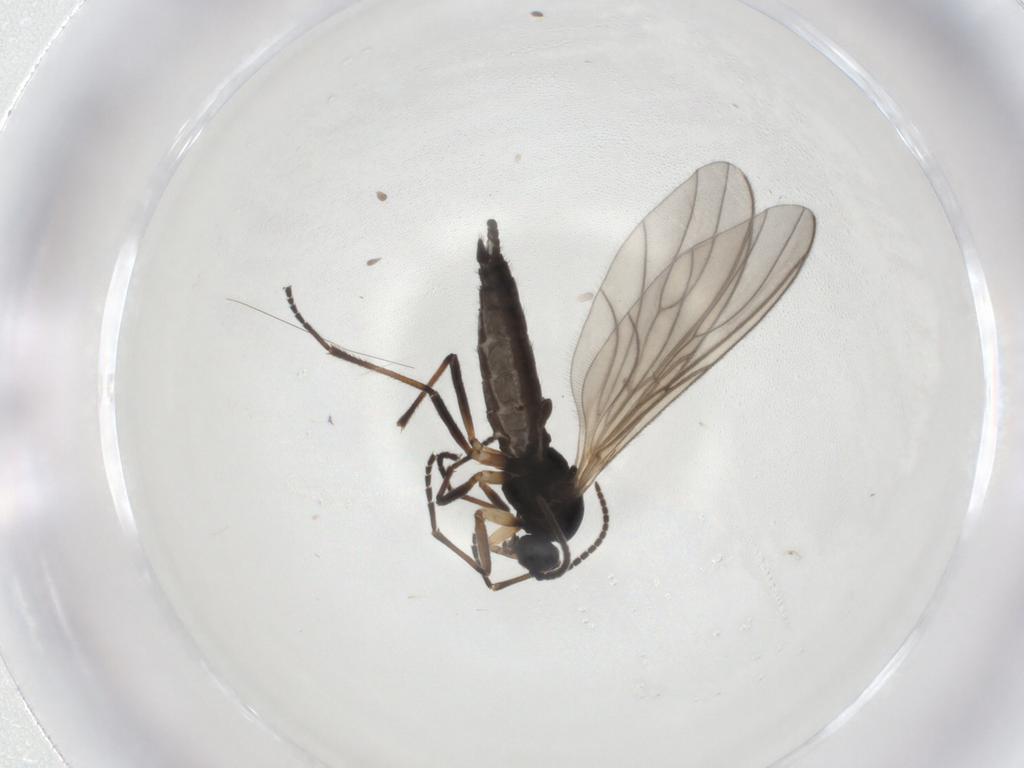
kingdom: Animalia
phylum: Arthropoda
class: Insecta
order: Diptera
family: Sciaridae
